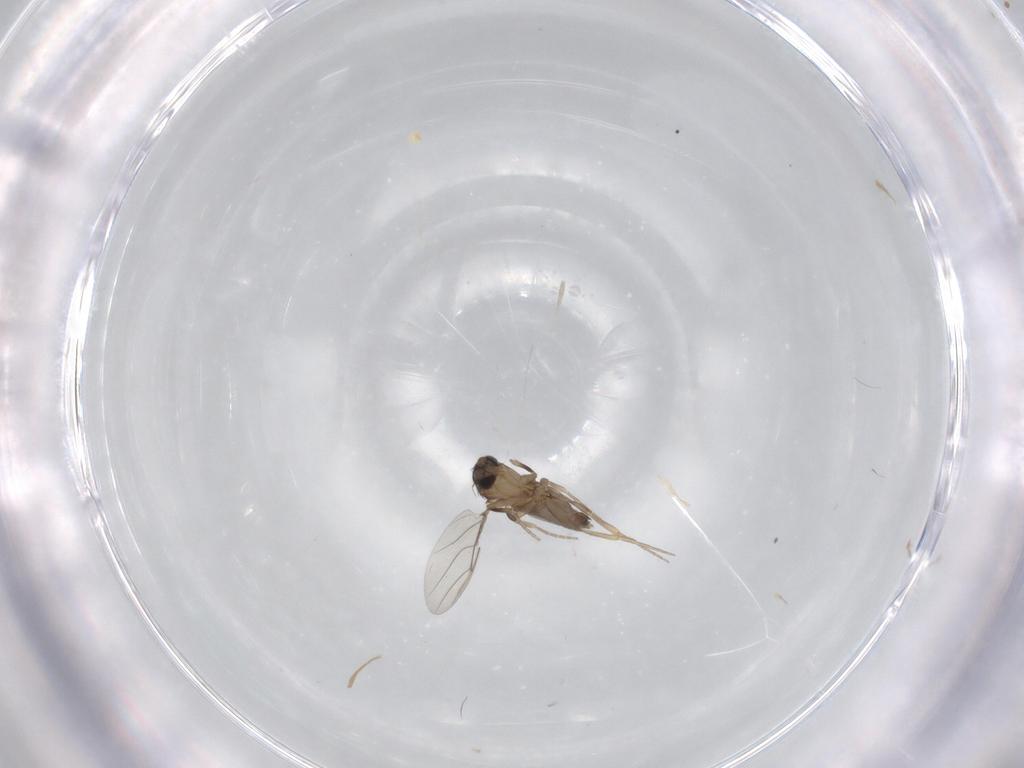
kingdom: Animalia
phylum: Arthropoda
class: Insecta
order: Diptera
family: Phoridae
